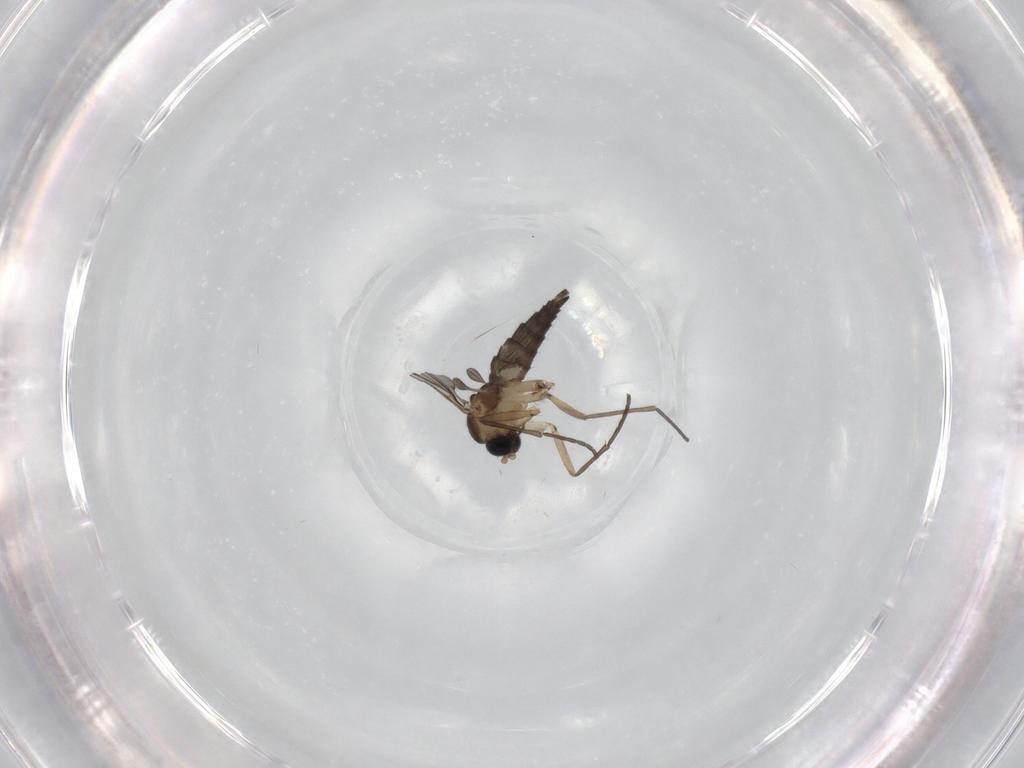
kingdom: Animalia
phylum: Arthropoda
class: Insecta
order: Diptera
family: Sciaridae
